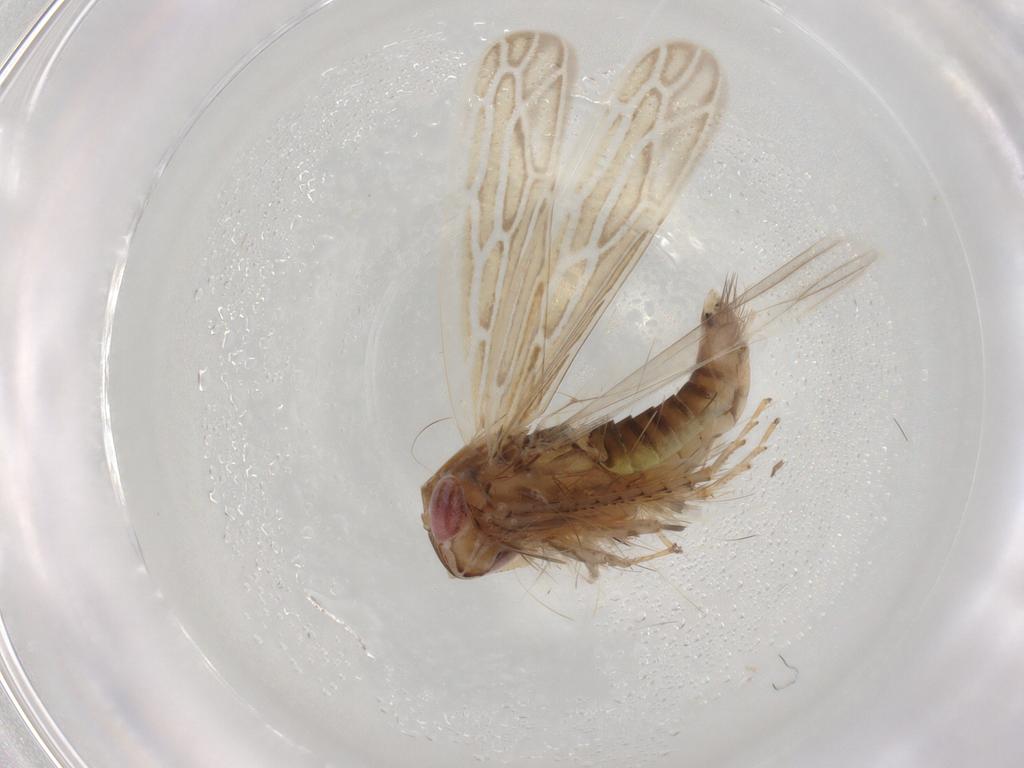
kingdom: Animalia
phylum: Arthropoda
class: Insecta
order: Hemiptera
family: Cicadellidae
